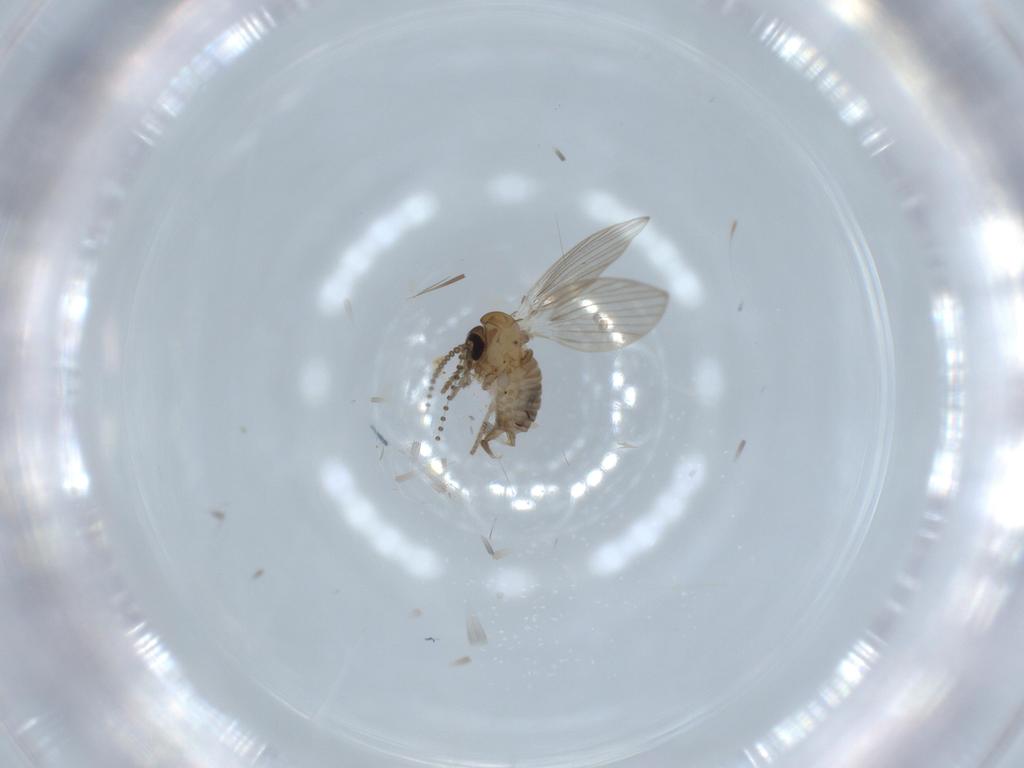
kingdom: Animalia
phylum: Arthropoda
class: Insecta
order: Diptera
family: Psychodidae
